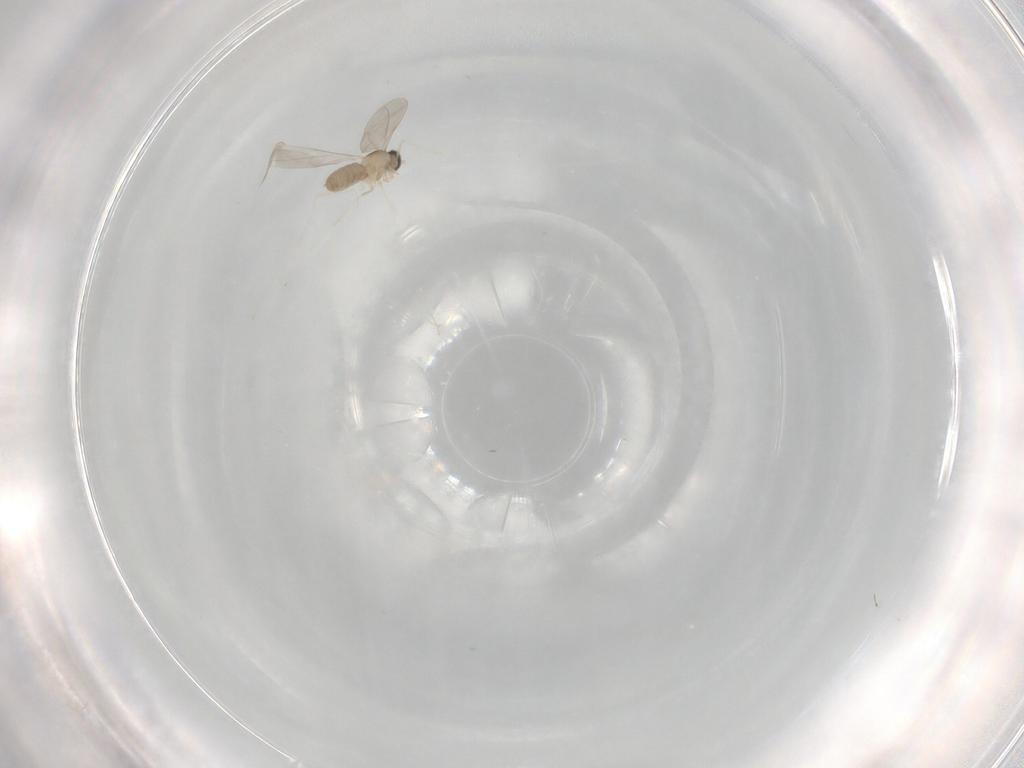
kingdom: Animalia
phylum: Arthropoda
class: Insecta
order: Diptera
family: Cecidomyiidae
